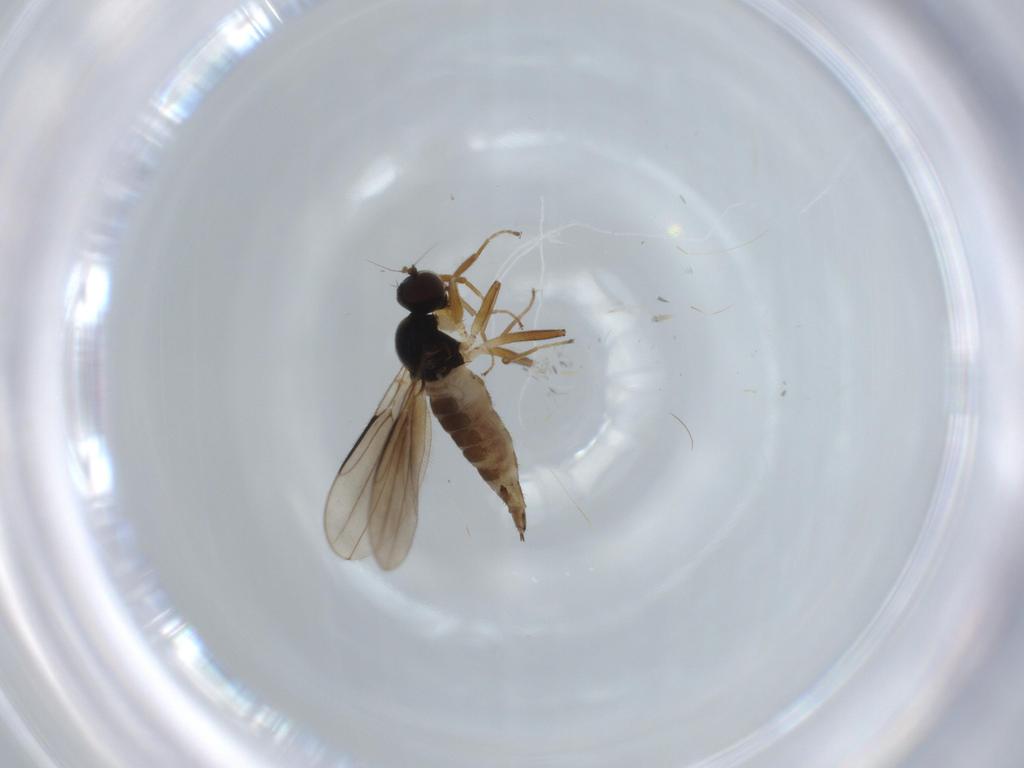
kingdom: Animalia
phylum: Arthropoda
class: Insecta
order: Diptera
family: Hybotidae
